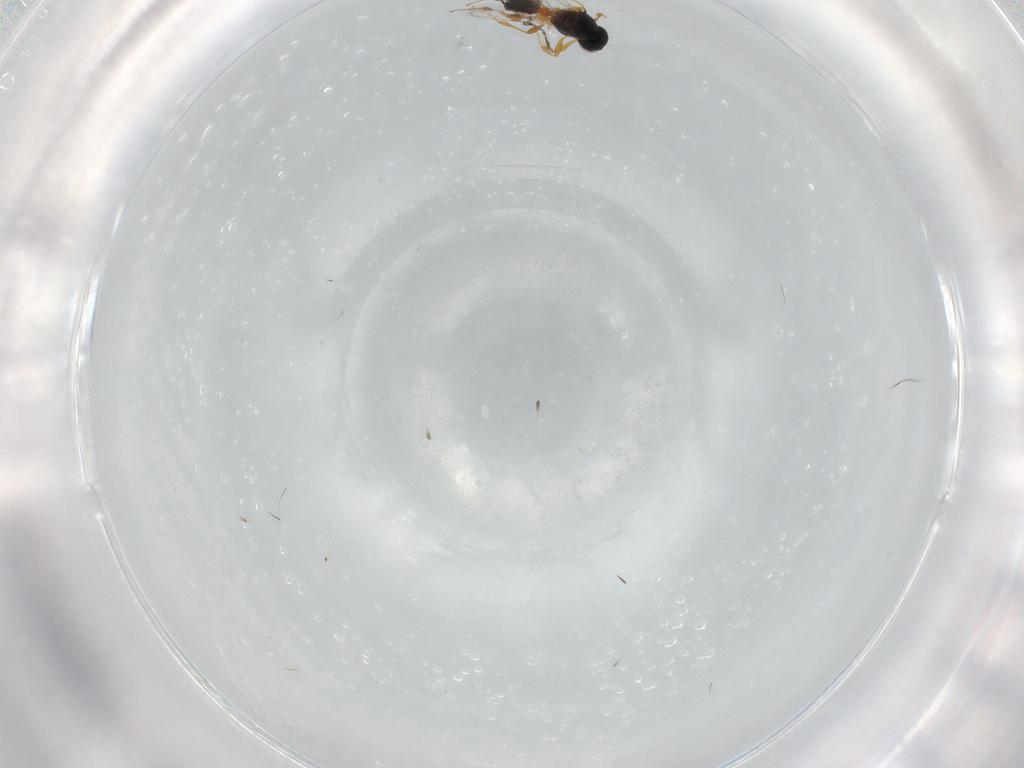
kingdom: Animalia
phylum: Arthropoda
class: Insecta
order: Hymenoptera
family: Platygastridae
